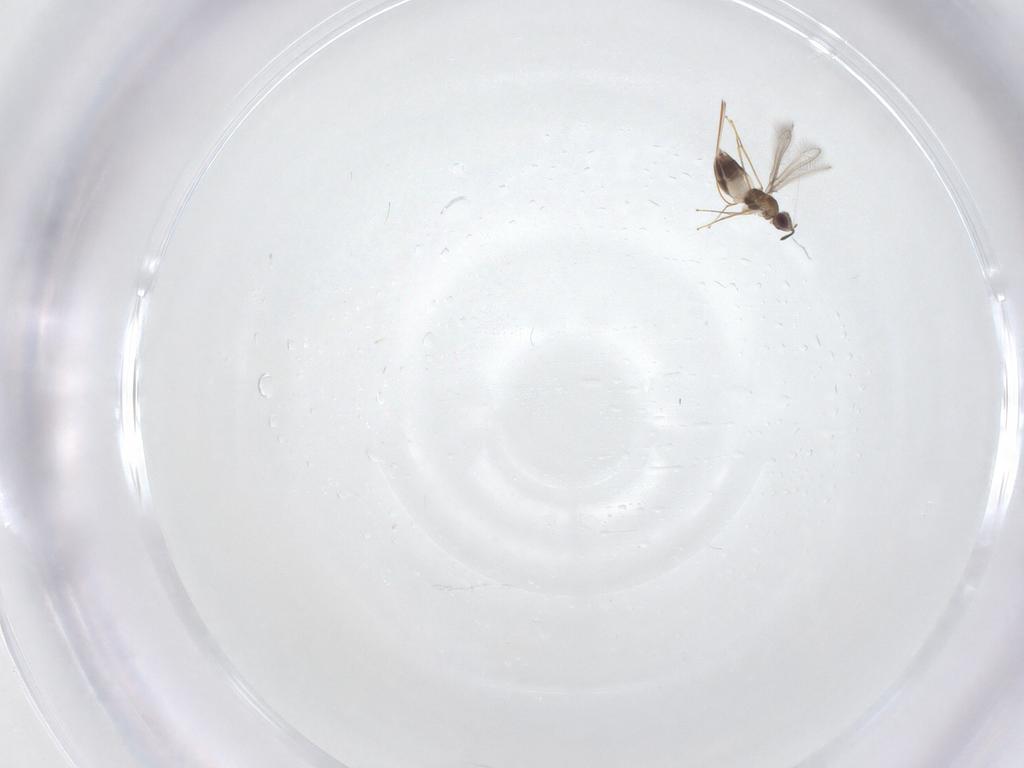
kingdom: Animalia
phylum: Arthropoda
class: Insecta
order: Hymenoptera
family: Mymaridae
